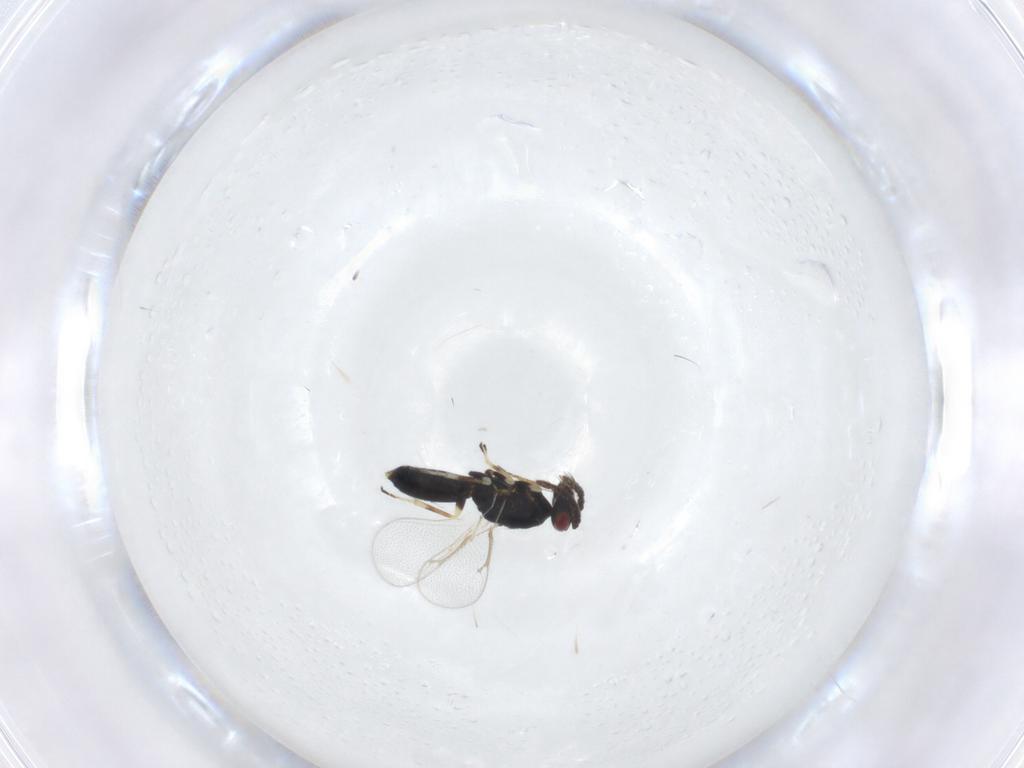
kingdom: Animalia
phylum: Arthropoda
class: Insecta
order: Hymenoptera
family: Eulophidae
